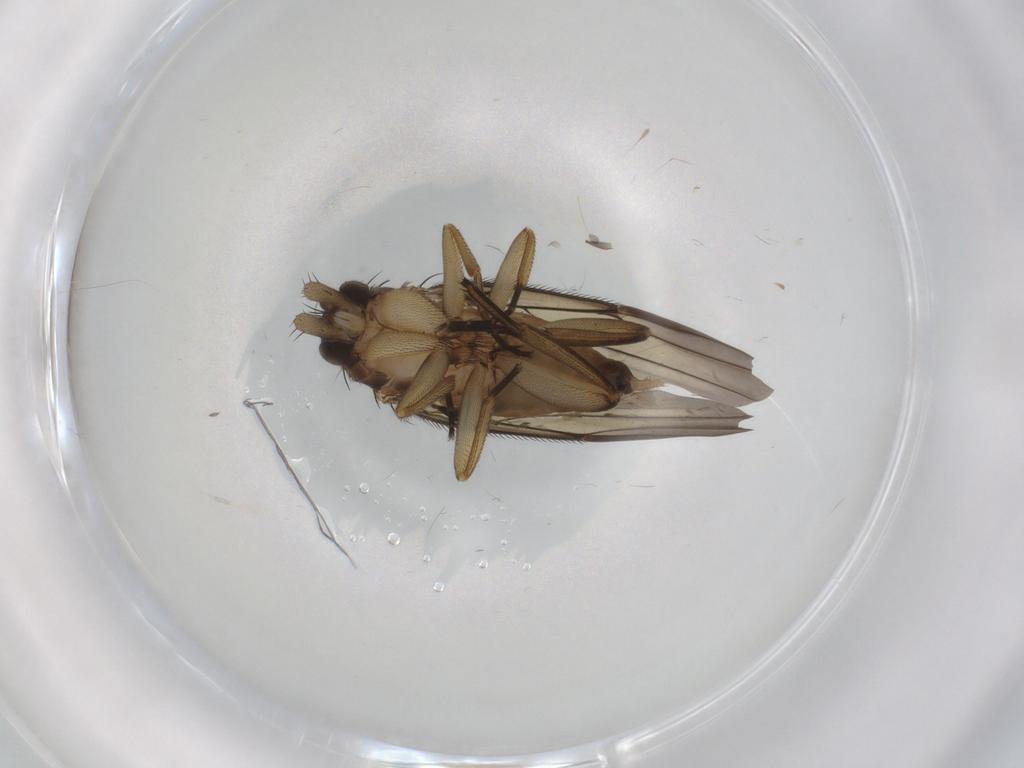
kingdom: Animalia
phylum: Arthropoda
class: Insecta
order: Diptera
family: Phoridae
